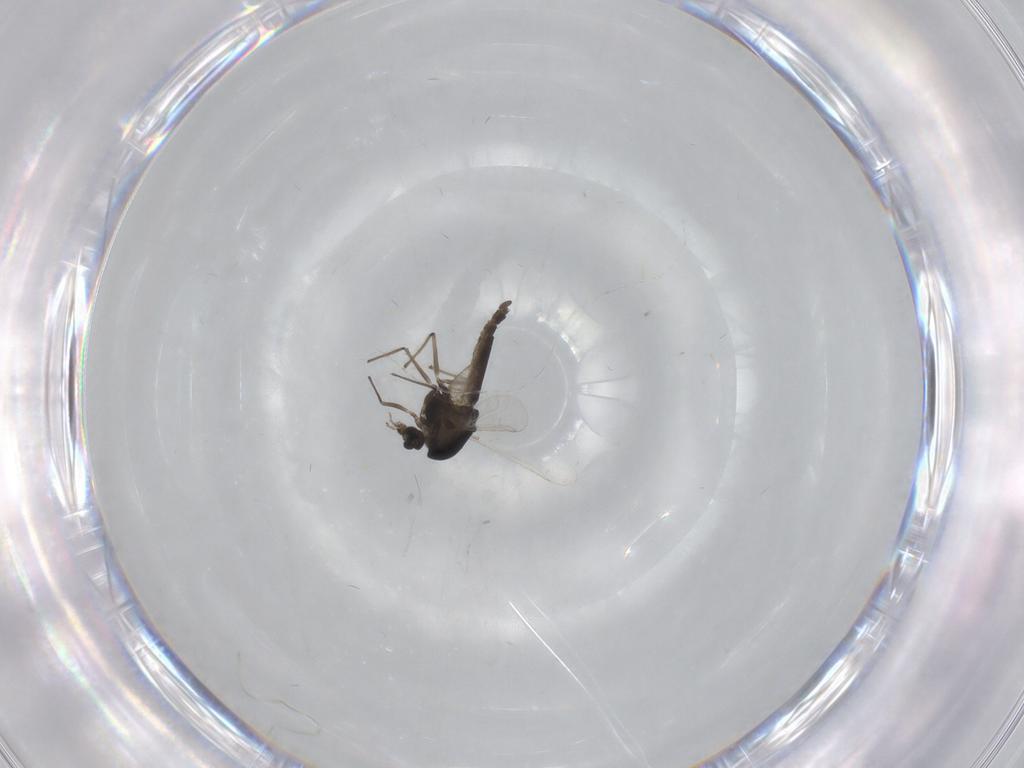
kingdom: Animalia
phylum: Arthropoda
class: Insecta
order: Diptera
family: Chironomidae
